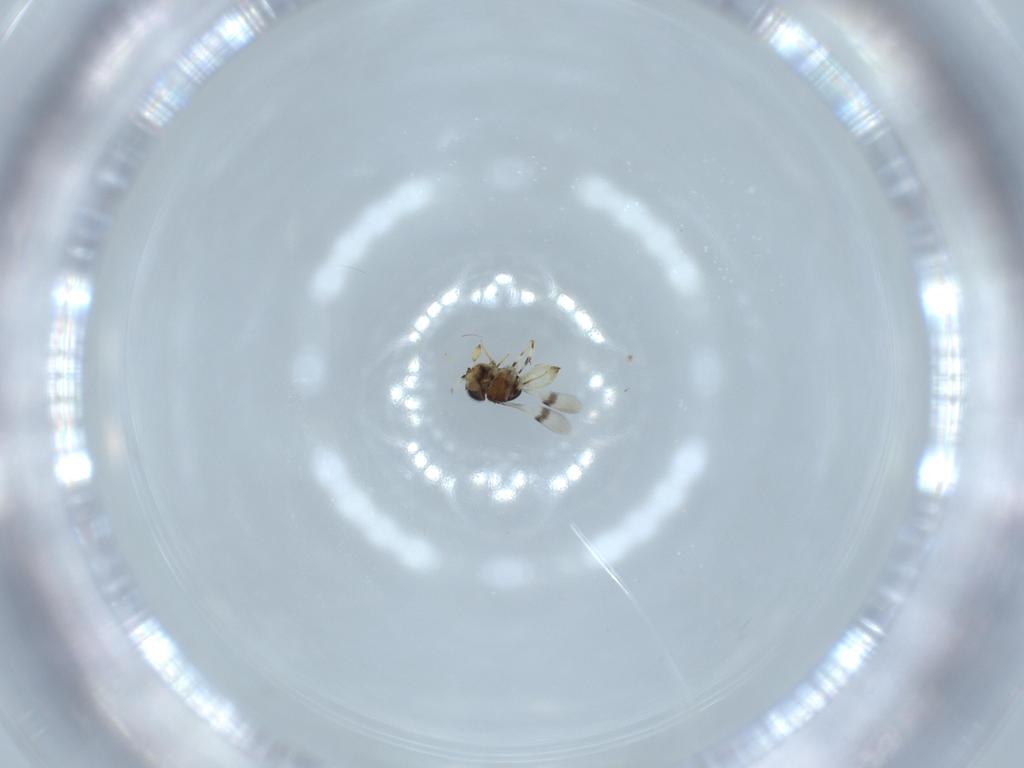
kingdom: Animalia
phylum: Arthropoda
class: Insecta
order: Hymenoptera
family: Scelionidae
